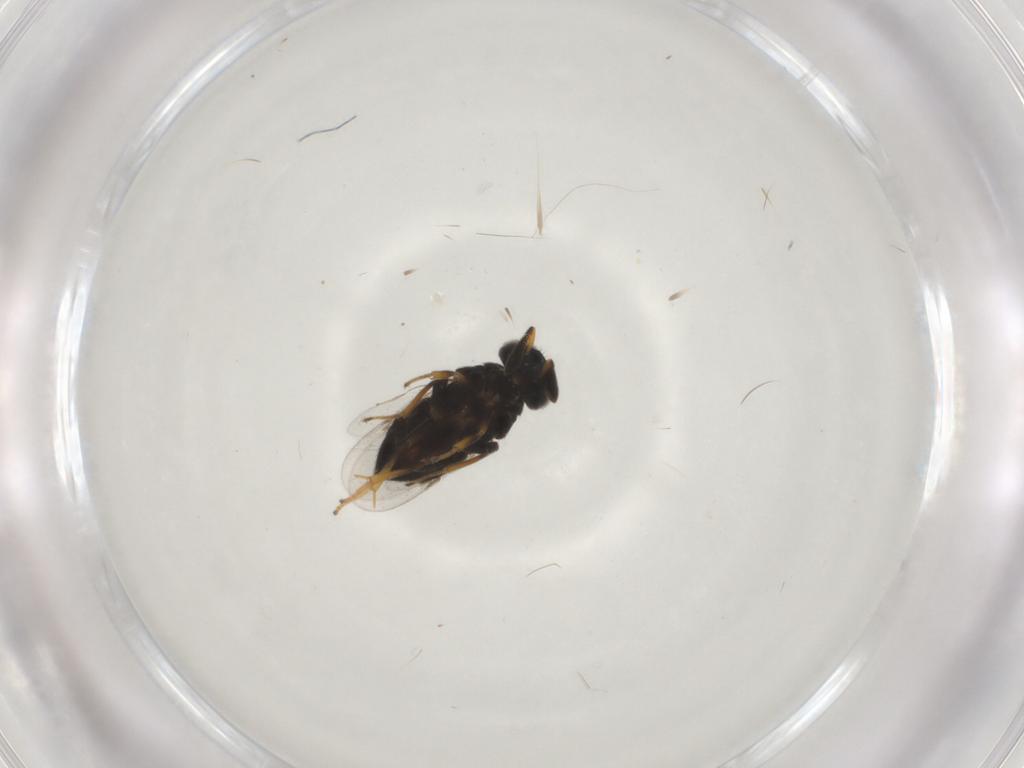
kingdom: Animalia
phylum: Arthropoda
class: Insecta
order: Hymenoptera
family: Encyrtidae
